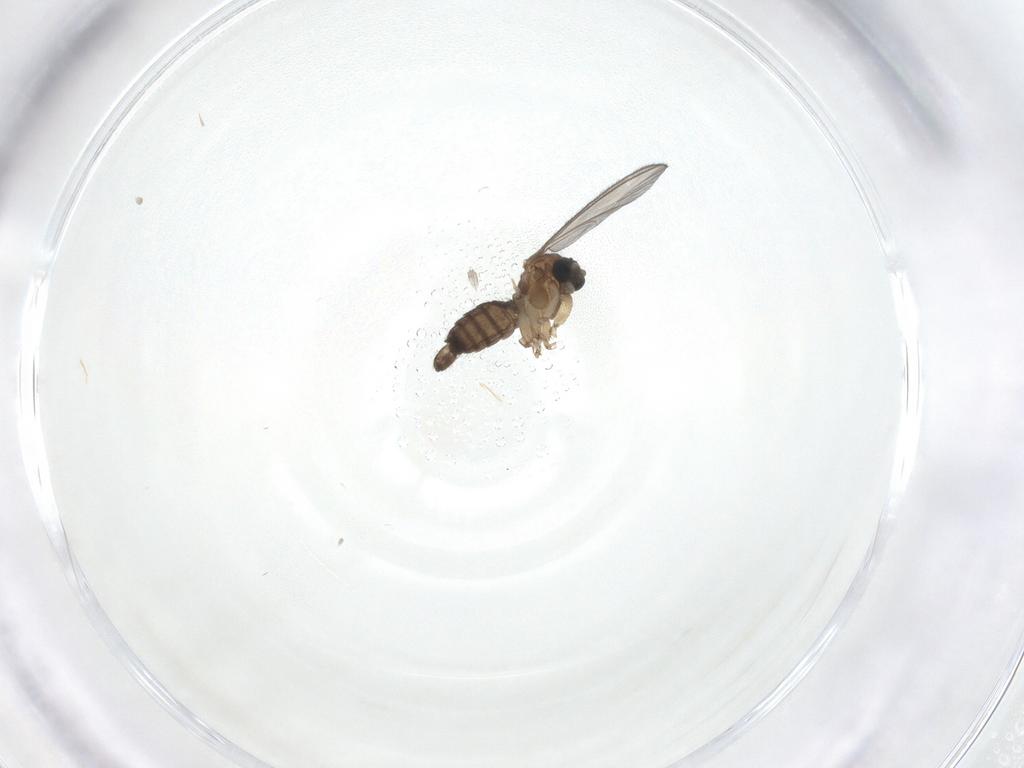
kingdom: Animalia
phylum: Arthropoda
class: Insecta
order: Diptera
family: Sciaridae
